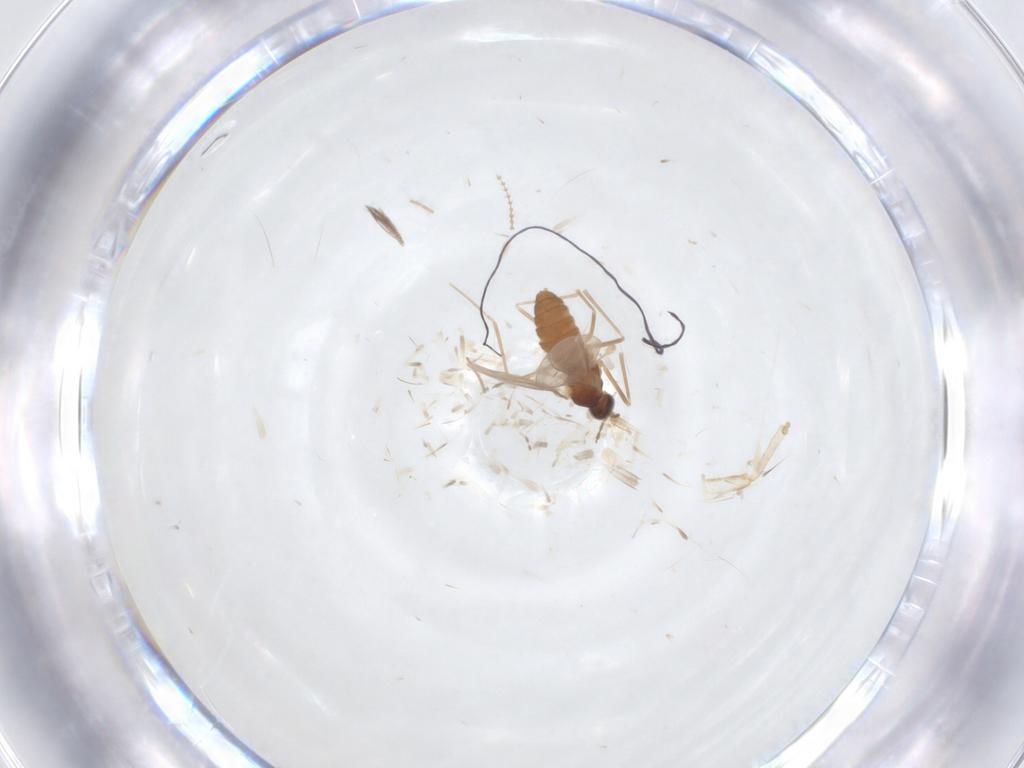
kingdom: Animalia
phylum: Arthropoda
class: Insecta
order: Diptera
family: Cecidomyiidae
